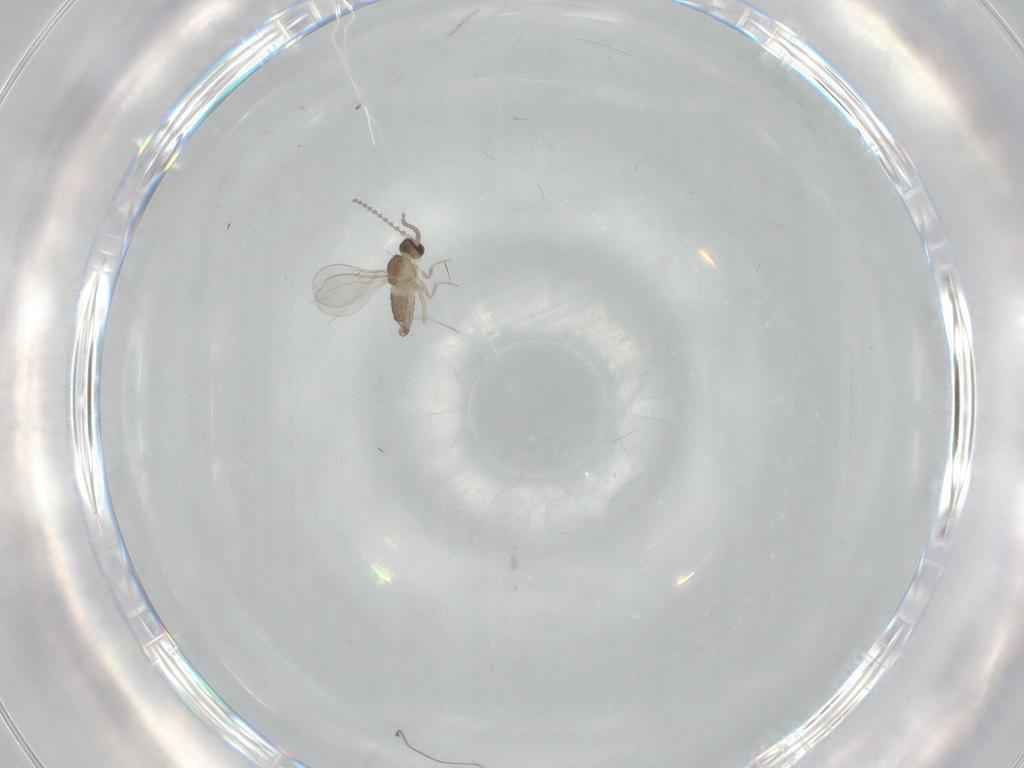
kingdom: Animalia
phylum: Arthropoda
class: Insecta
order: Diptera
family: Cecidomyiidae
